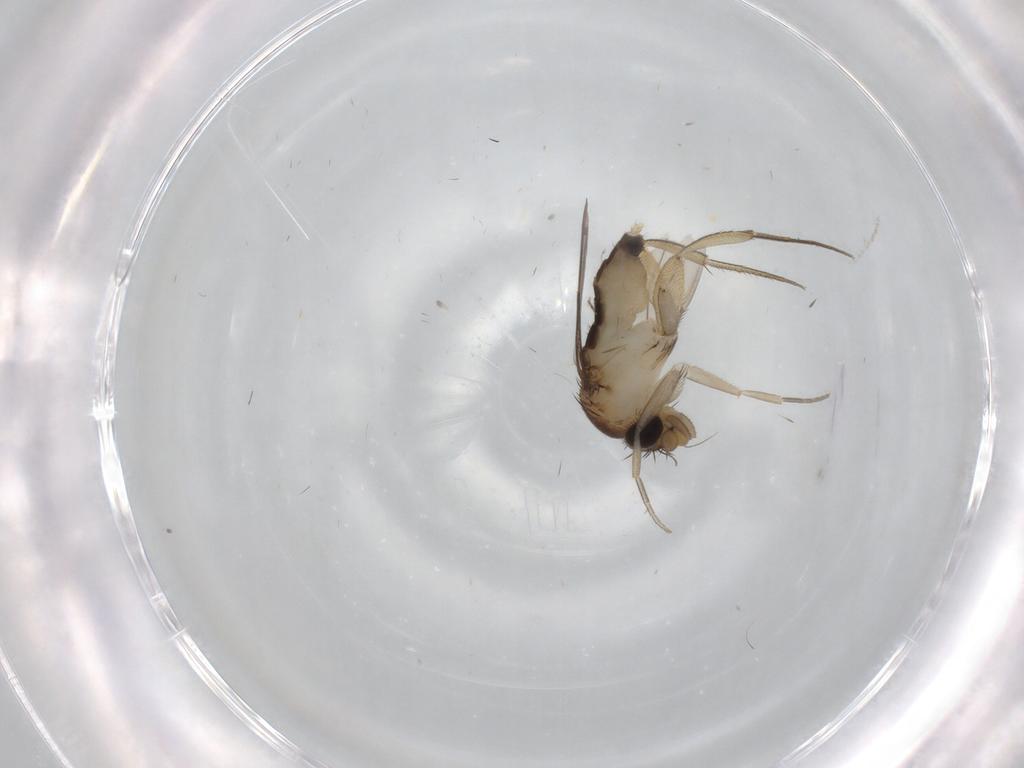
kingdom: Animalia
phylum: Arthropoda
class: Insecta
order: Diptera
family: Phoridae
